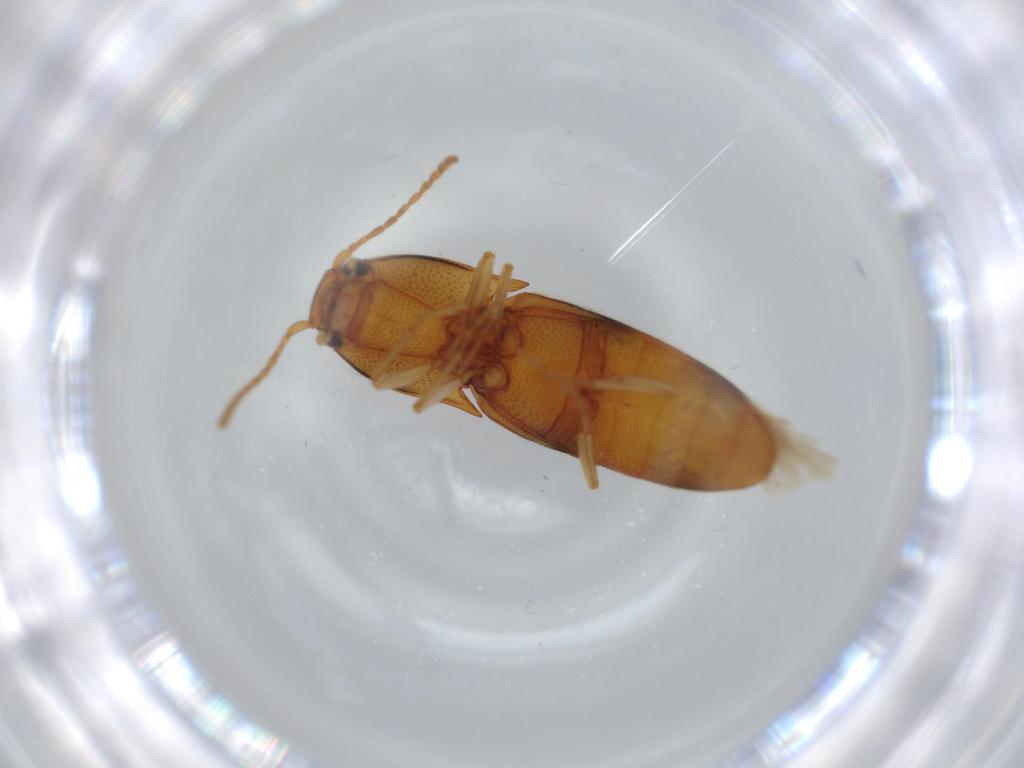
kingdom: Animalia
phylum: Arthropoda
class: Insecta
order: Coleoptera
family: Elateridae
